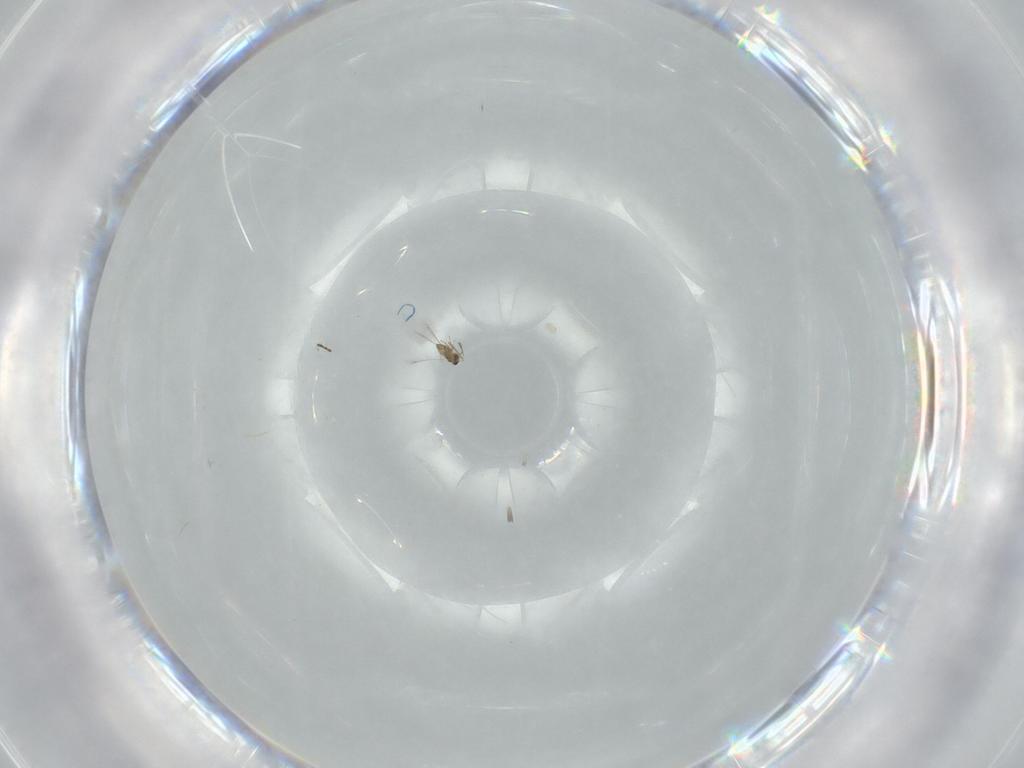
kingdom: Animalia
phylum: Arthropoda
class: Insecta
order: Hymenoptera
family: Mymaridae
